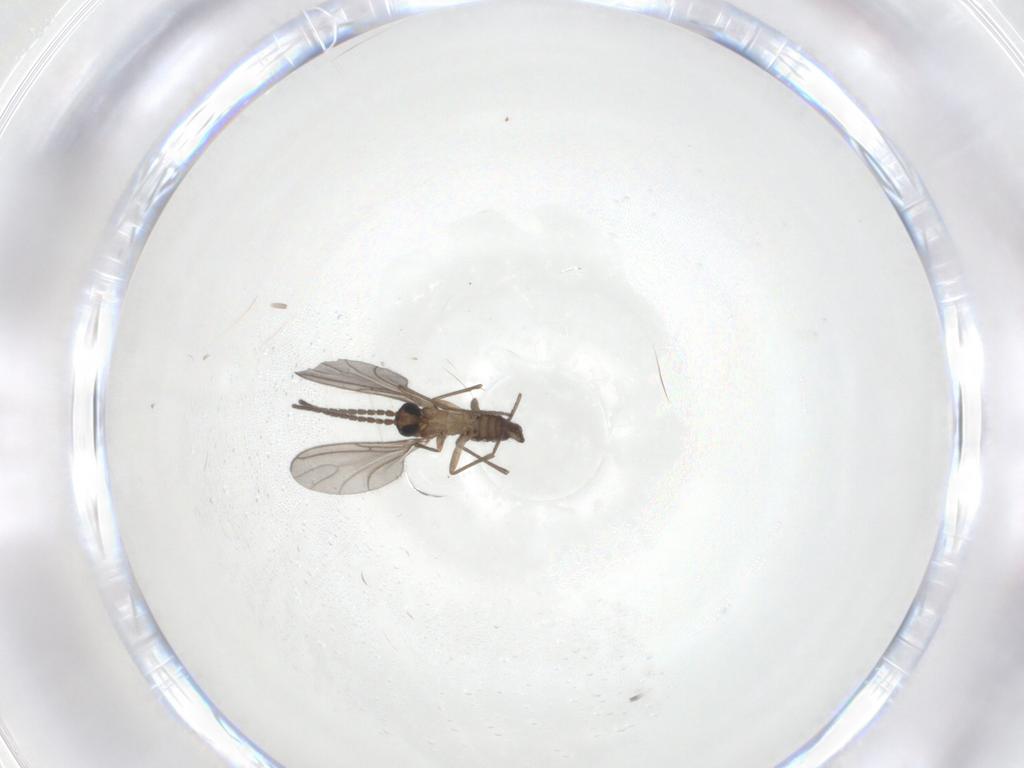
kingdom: Animalia
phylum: Arthropoda
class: Insecta
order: Diptera
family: Sciaridae
